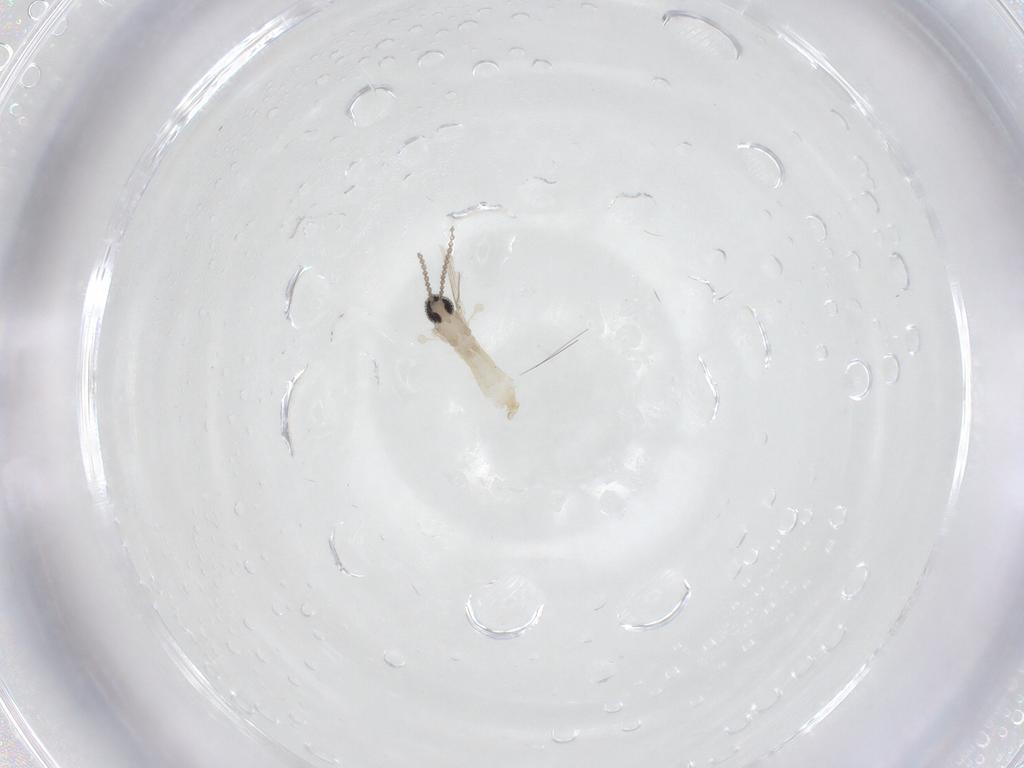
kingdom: Animalia
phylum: Arthropoda
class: Insecta
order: Diptera
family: Cecidomyiidae
